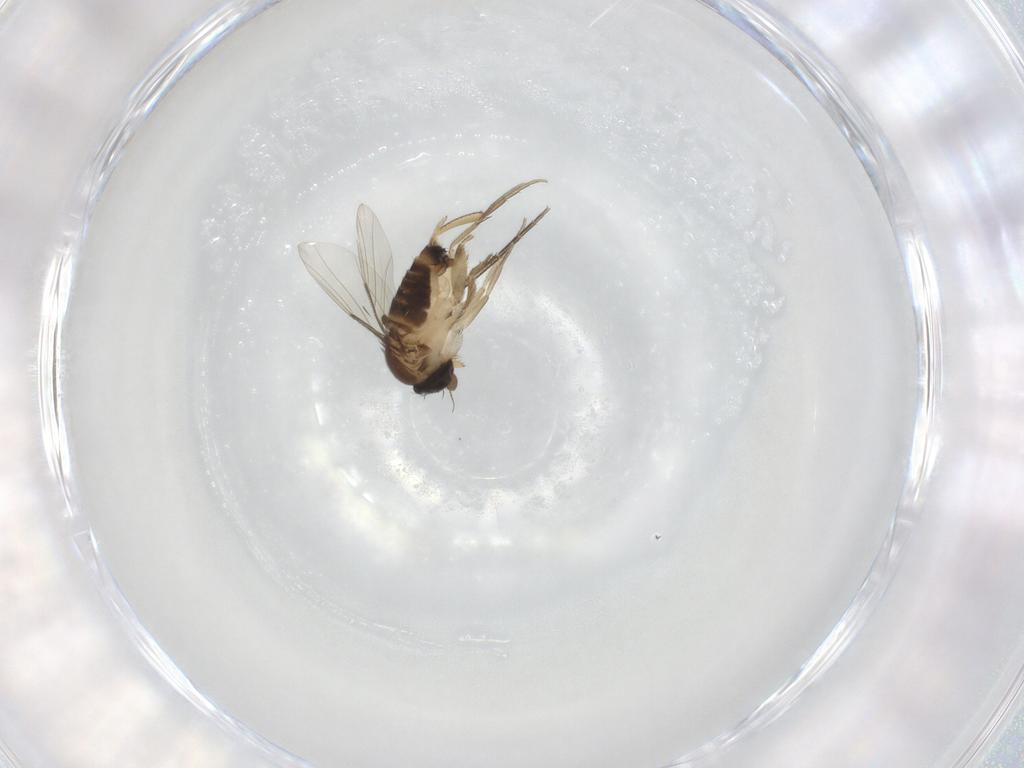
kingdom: Animalia
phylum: Arthropoda
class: Insecta
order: Diptera
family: Phoridae
